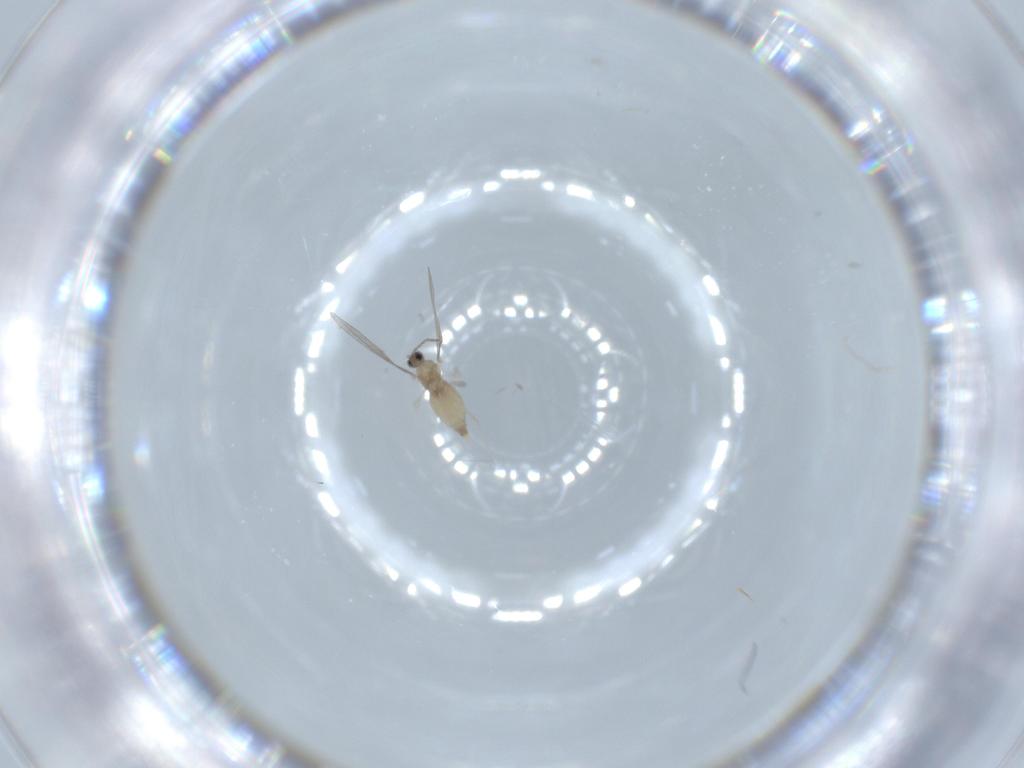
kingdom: Animalia
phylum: Arthropoda
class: Insecta
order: Diptera
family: Cecidomyiidae
